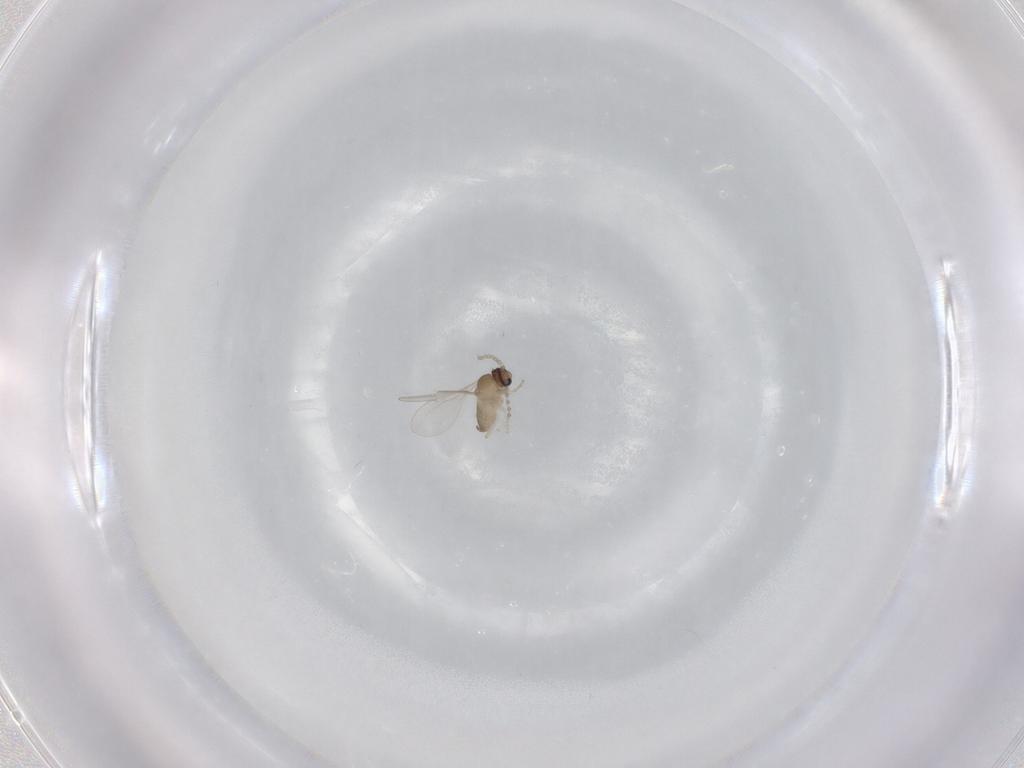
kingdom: Animalia
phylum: Arthropoda
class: Insecta
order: Diptera
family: Cecidomyiidae
